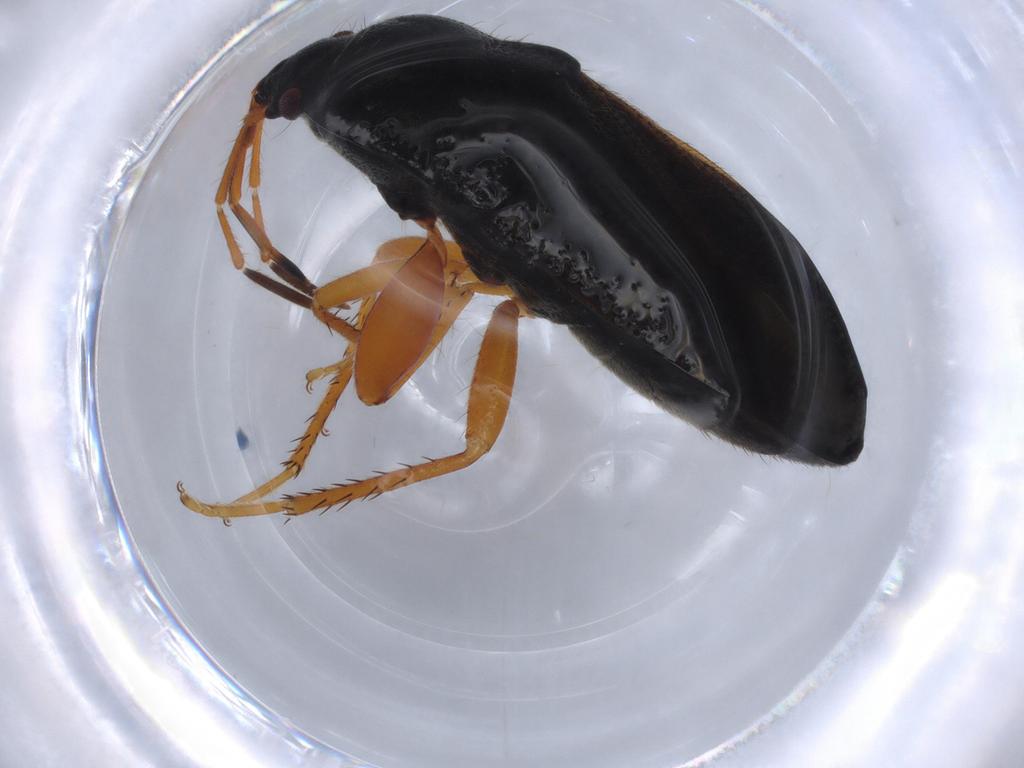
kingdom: Animalia
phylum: Arthropoda
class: Insecta
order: Hemiptera
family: Rhyparochromidae
